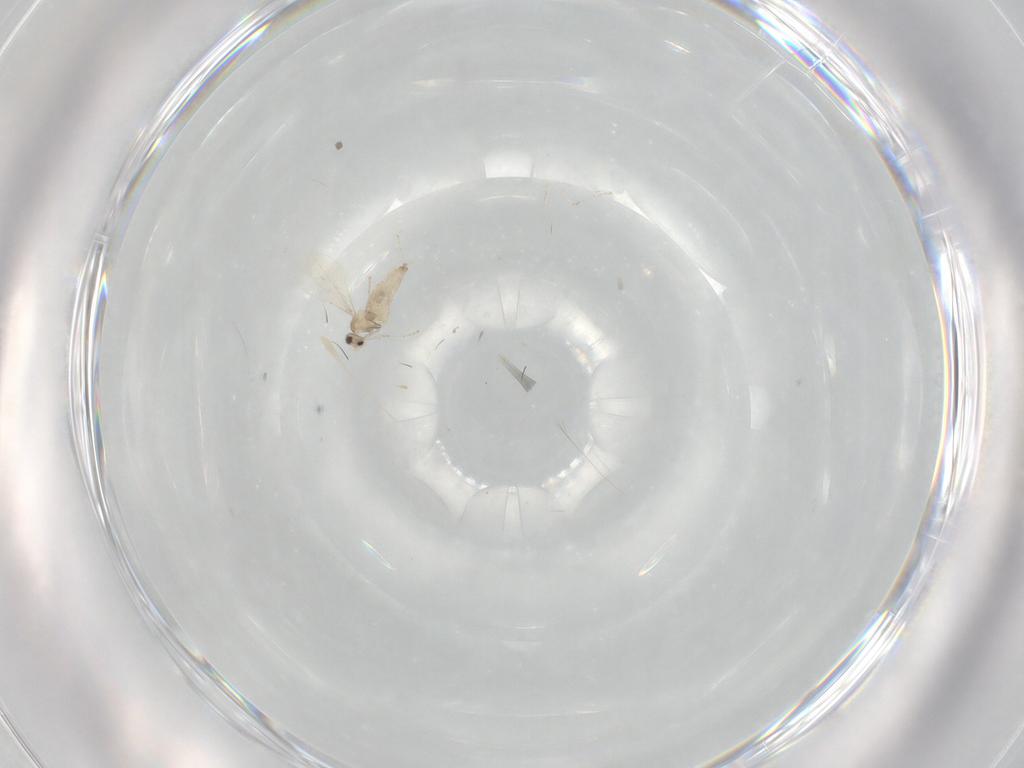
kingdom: Animalia
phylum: Arthropoda
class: Insecta
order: Diptera
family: Cecidomyiidae
